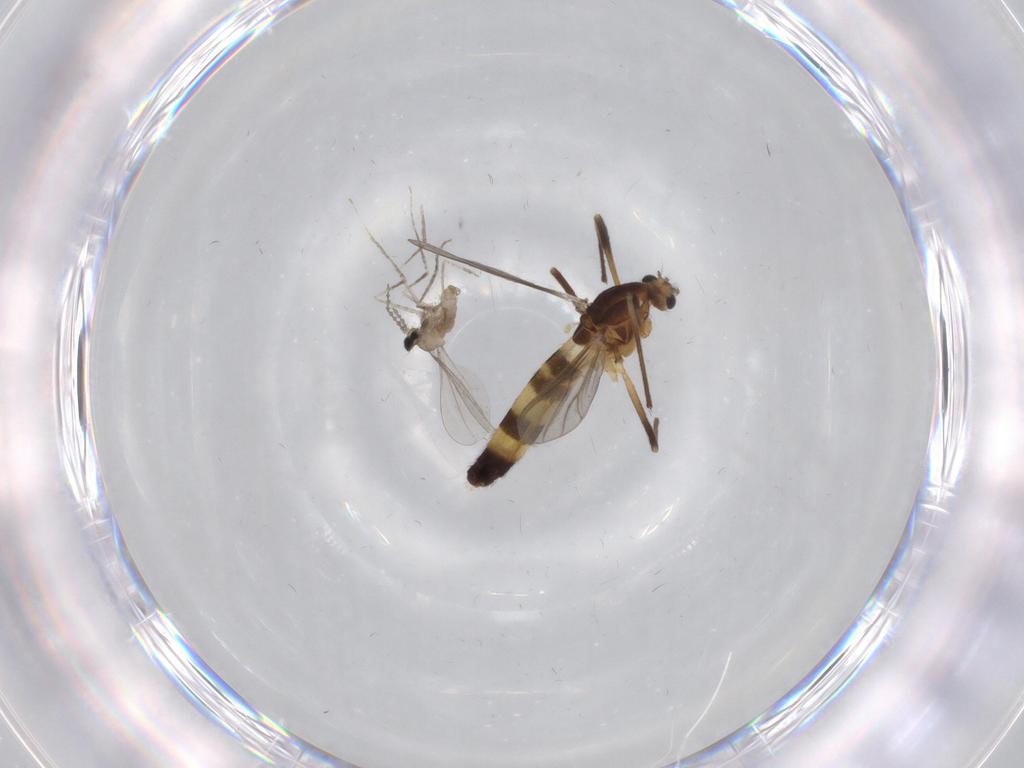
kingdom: Animalia
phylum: Arthropoda
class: Insecta
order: Diptera
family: Chironomidae
